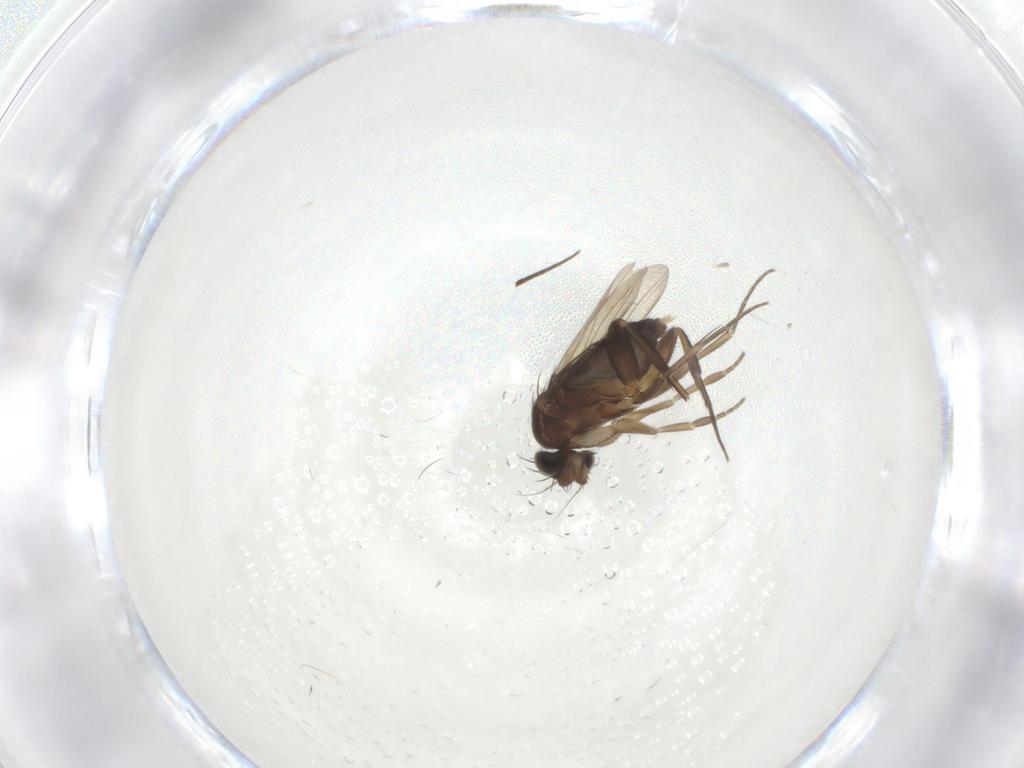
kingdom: Animalia
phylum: Arthropoda
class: Insecta
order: Diptera
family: Phoridae
